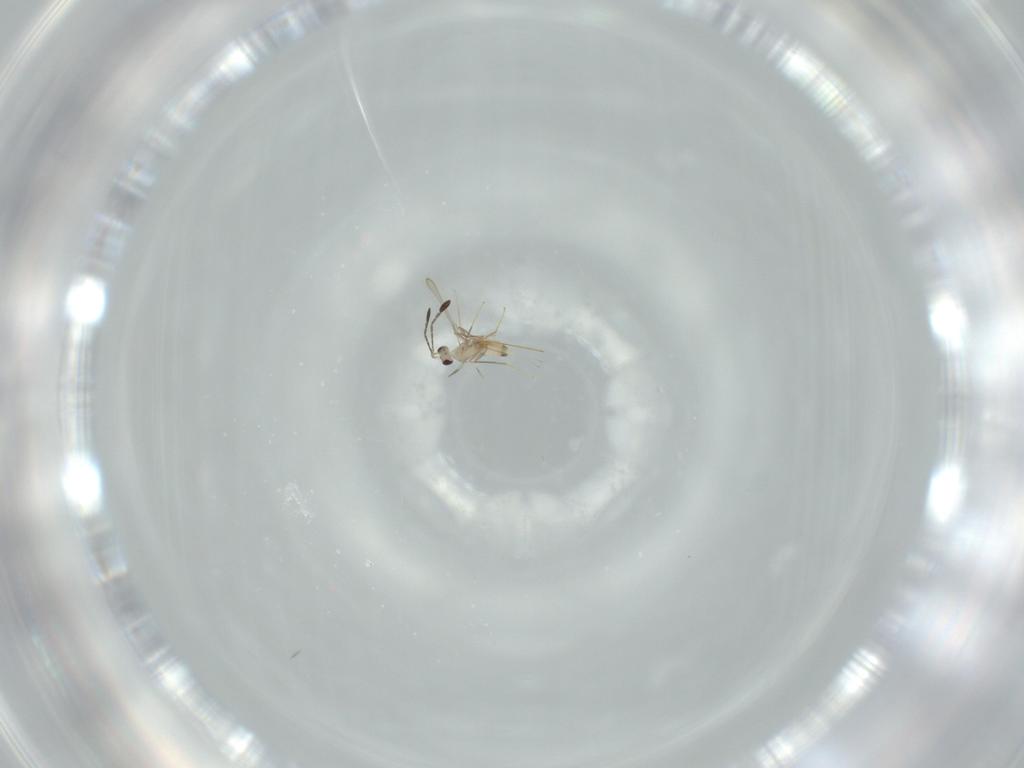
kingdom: Animalia
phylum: Arthropoda
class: Insecta
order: Hymenoptera
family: Mymaridae
